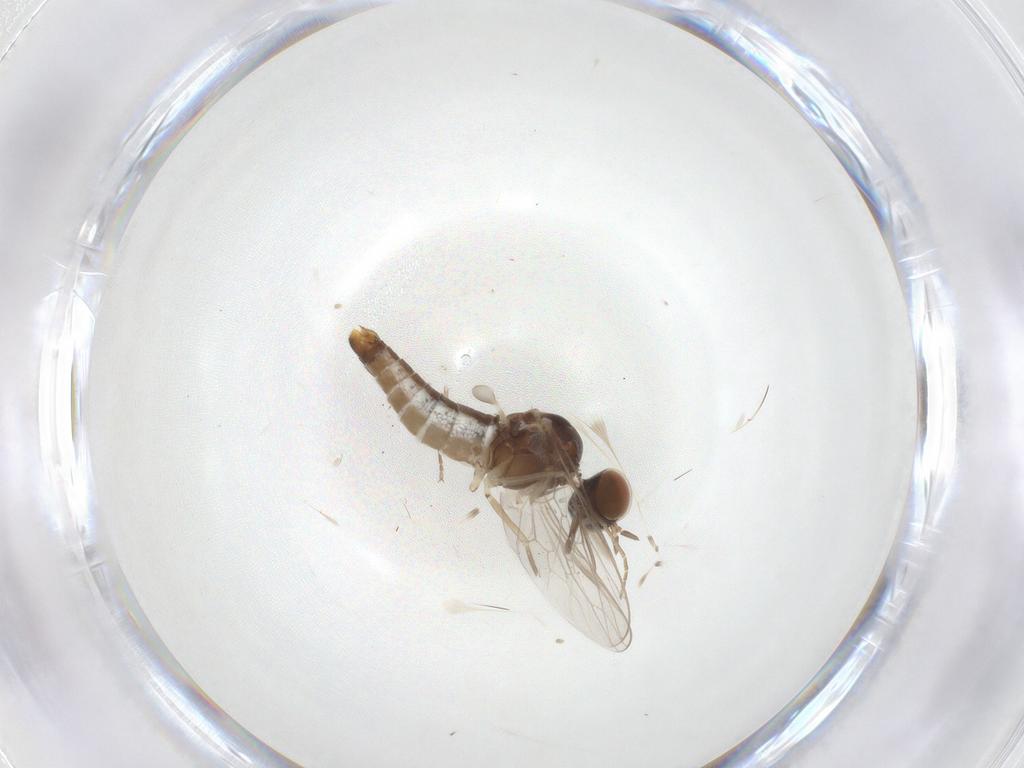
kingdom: Animalia
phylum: Arthropoda
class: Insecta
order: Diptera
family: Scenopinidae
